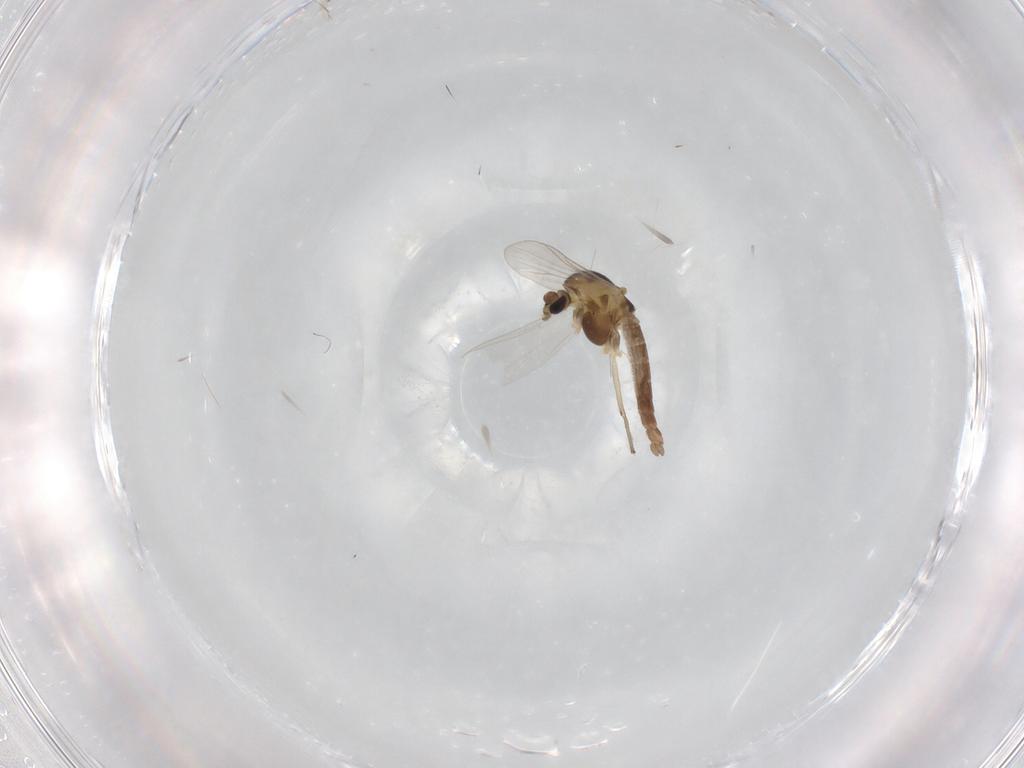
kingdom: Animalia
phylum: Arthropoda
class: Insecta
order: Diptera
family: Chironomidae
